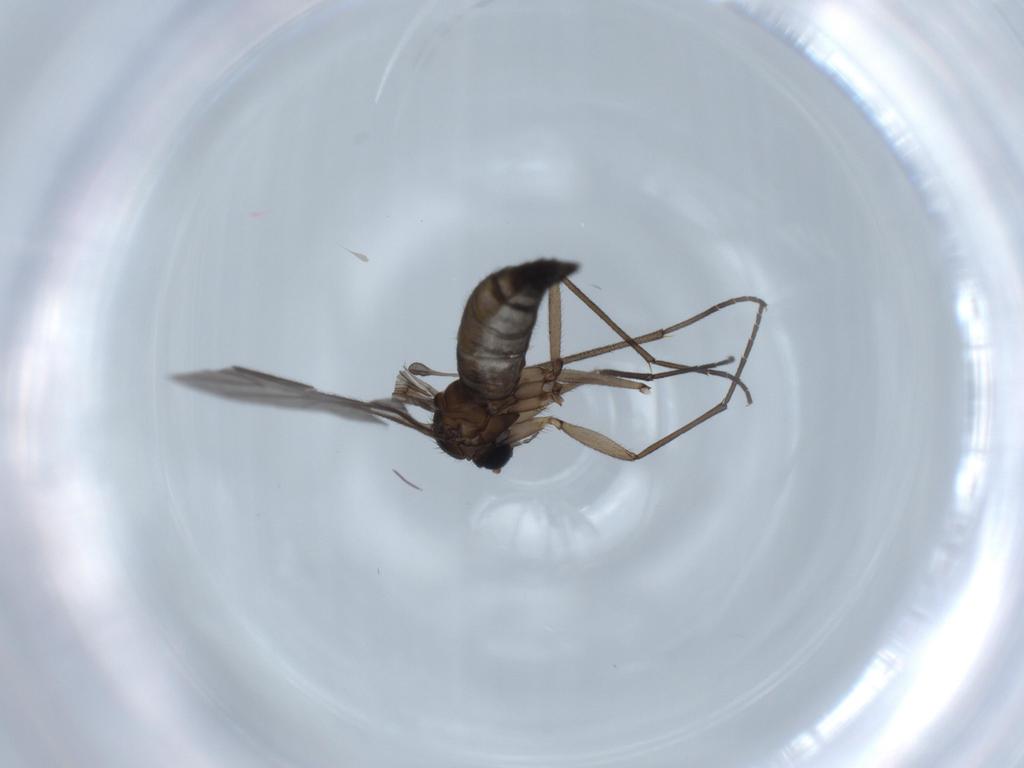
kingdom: Animalia
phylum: Arthropoda
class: Insecta
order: Diptera
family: Sciaridae
